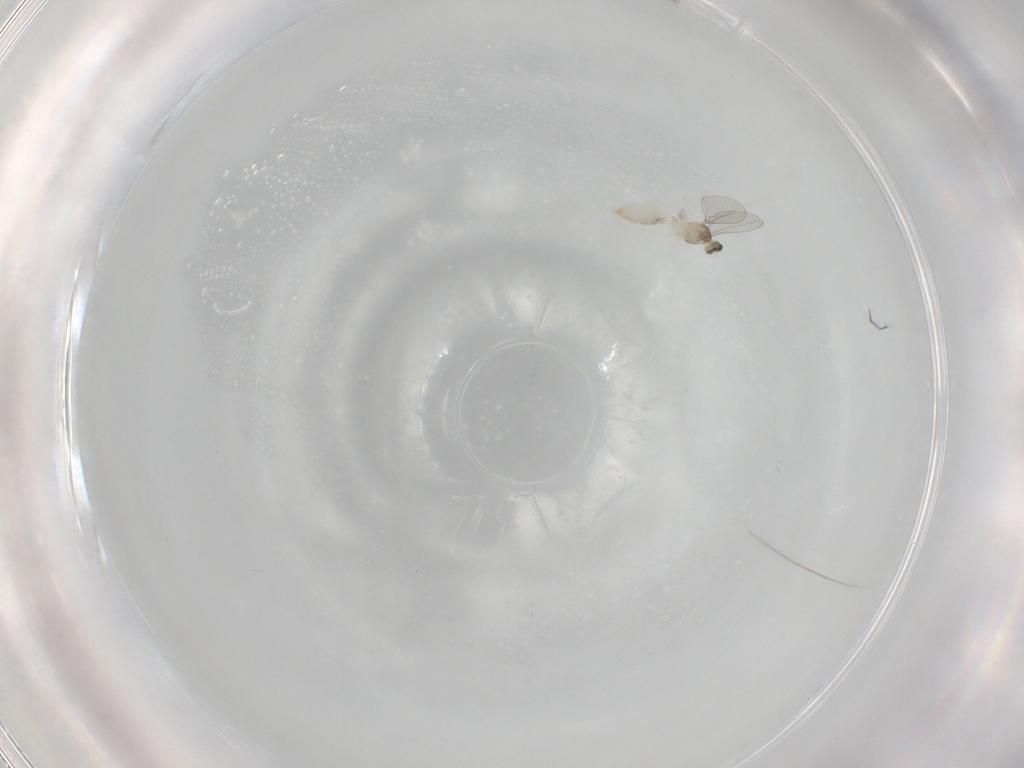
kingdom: Animalia
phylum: Arthropoda
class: Insecta
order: Diptera
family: Cecidomyiidae
